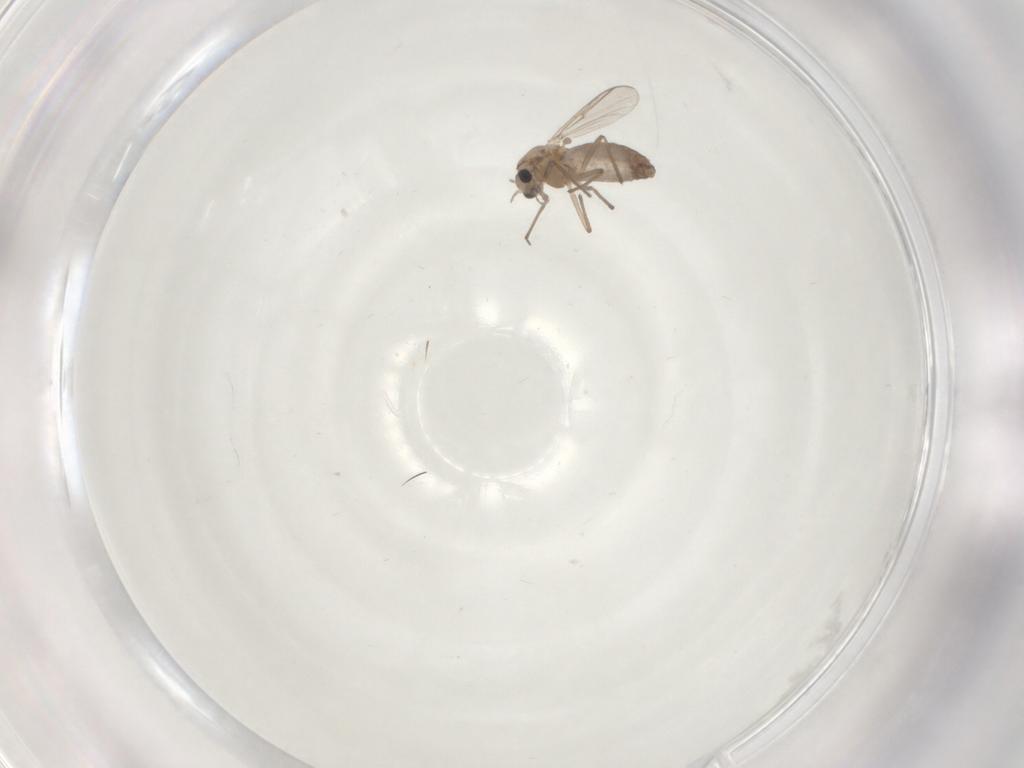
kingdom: Animalia
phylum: Arthropoda
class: Insecta
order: Diptera
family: Chironomidae
